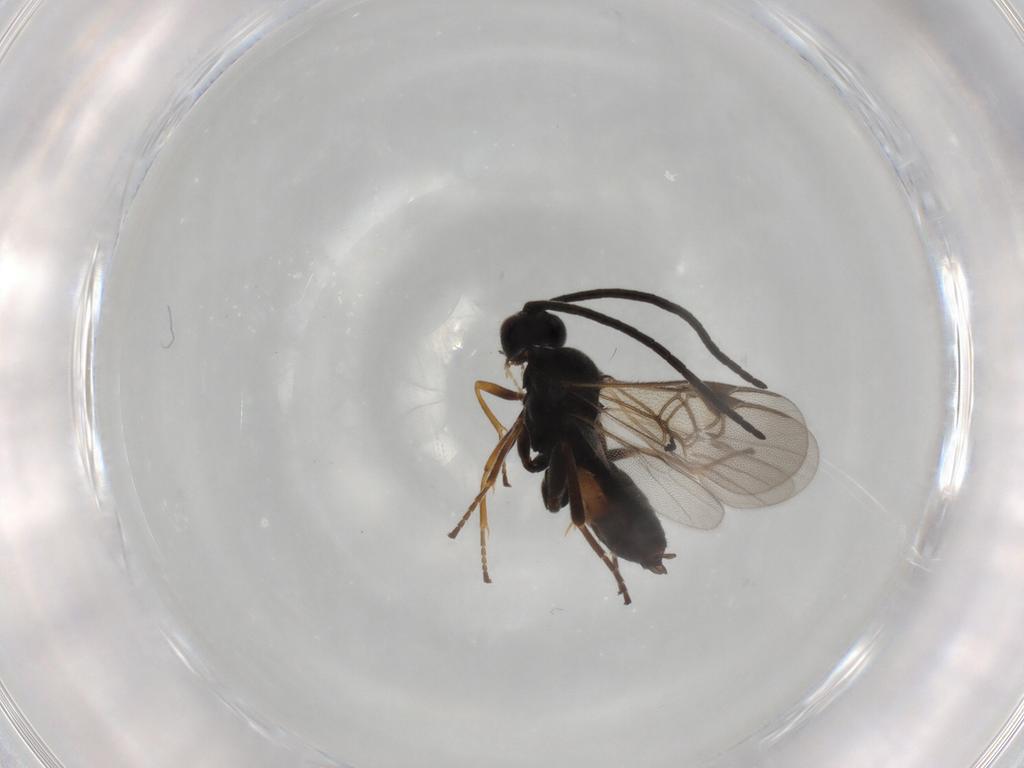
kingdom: Animalia
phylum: Arthropoda
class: Insecta
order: Hymenoptera
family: Braconidae
